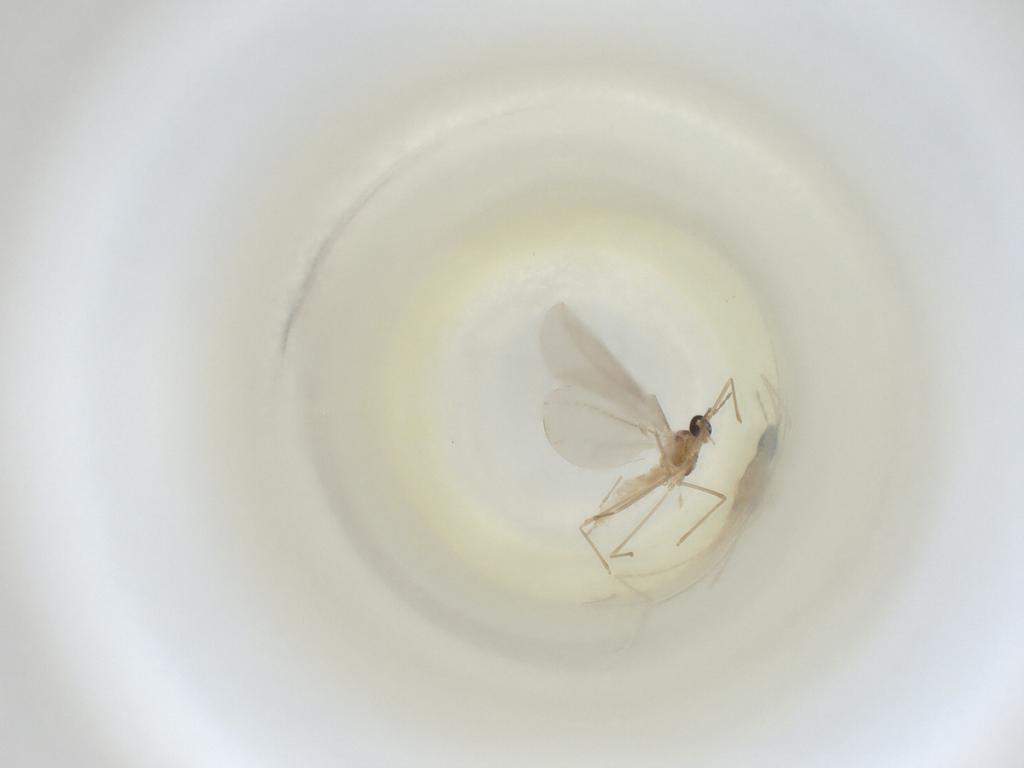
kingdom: Animalia
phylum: Arthropoda
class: Insecta
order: Diptera
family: Cecidomyiidae
